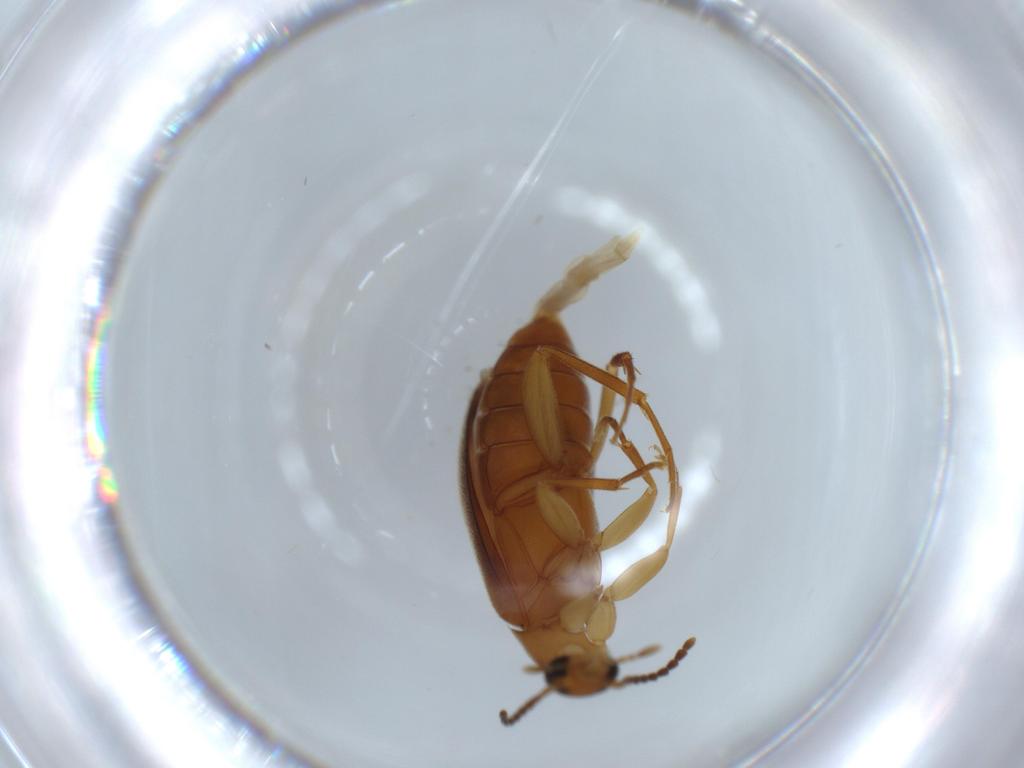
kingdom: Animalia
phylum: Arthropoda
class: Insecta
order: Coleoptera
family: Scraptiidae
